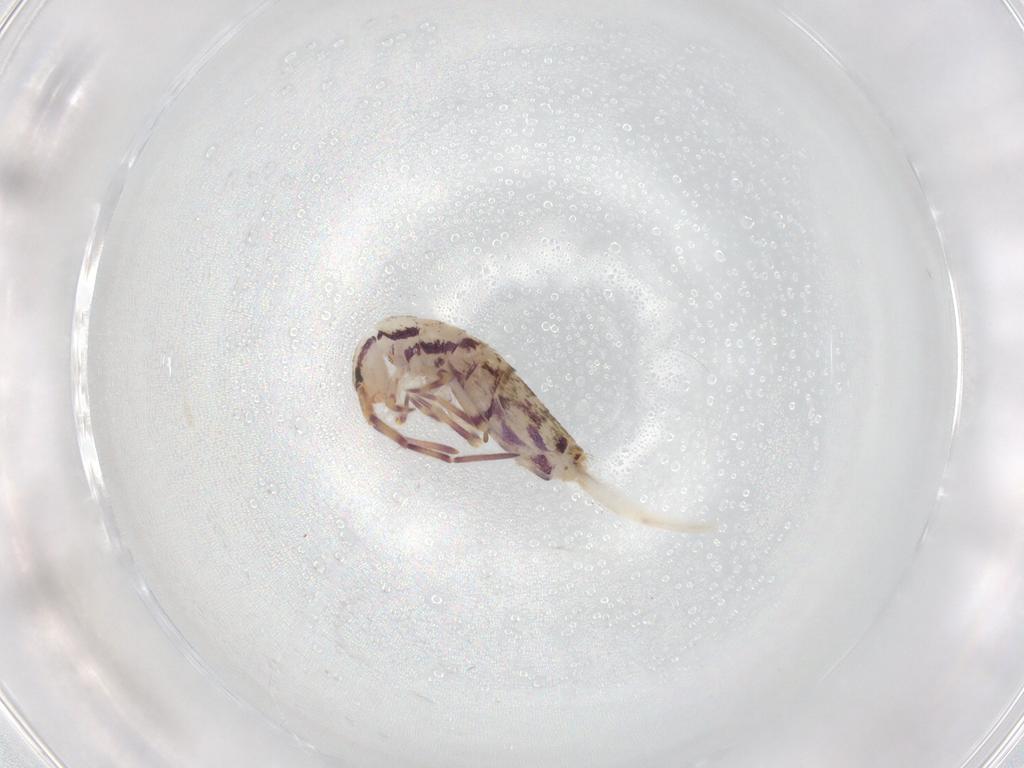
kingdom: Animalia
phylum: Arthropoda
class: Collembola
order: Entomobryomorpha
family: Entomobryidae
